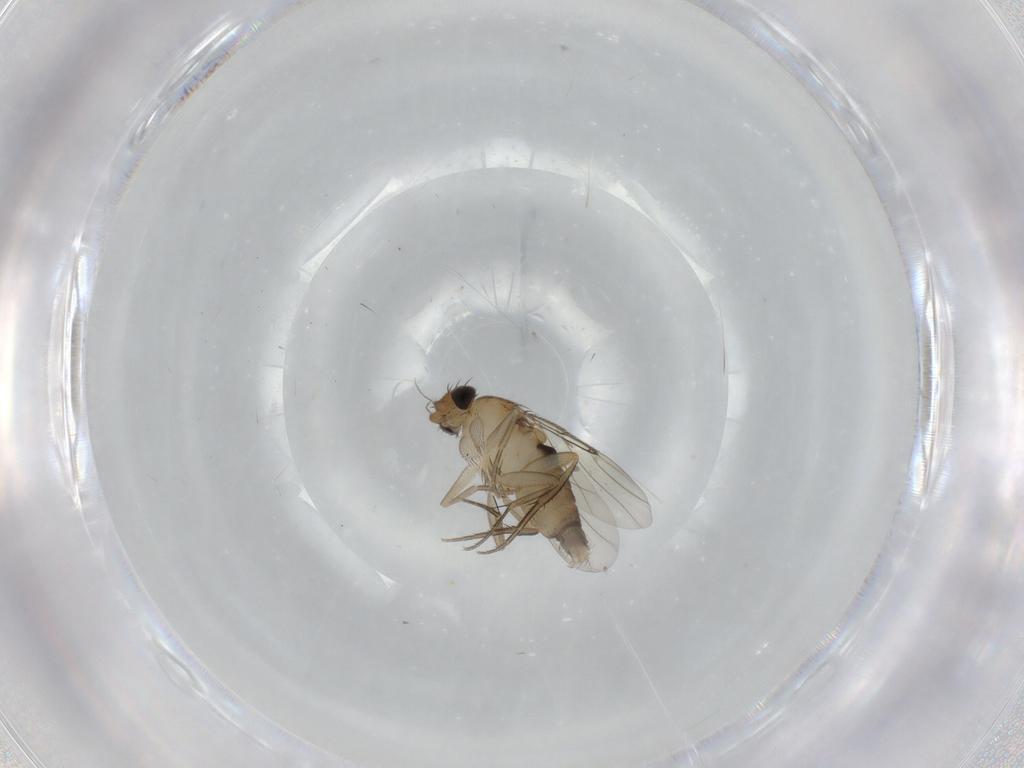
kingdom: Animalia
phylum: Arthropoda
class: Insecta
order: Diptera
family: Phoridae
